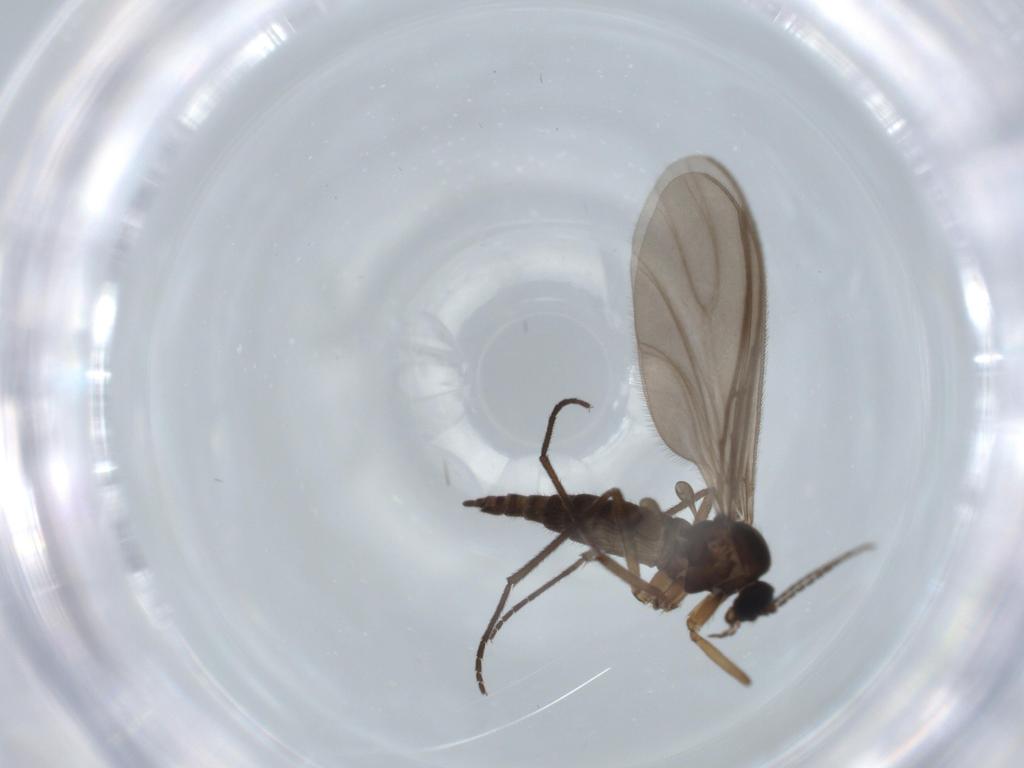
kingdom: Animalia
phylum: Arthropoda
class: Insecta
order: Diptera
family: Sciaridae
